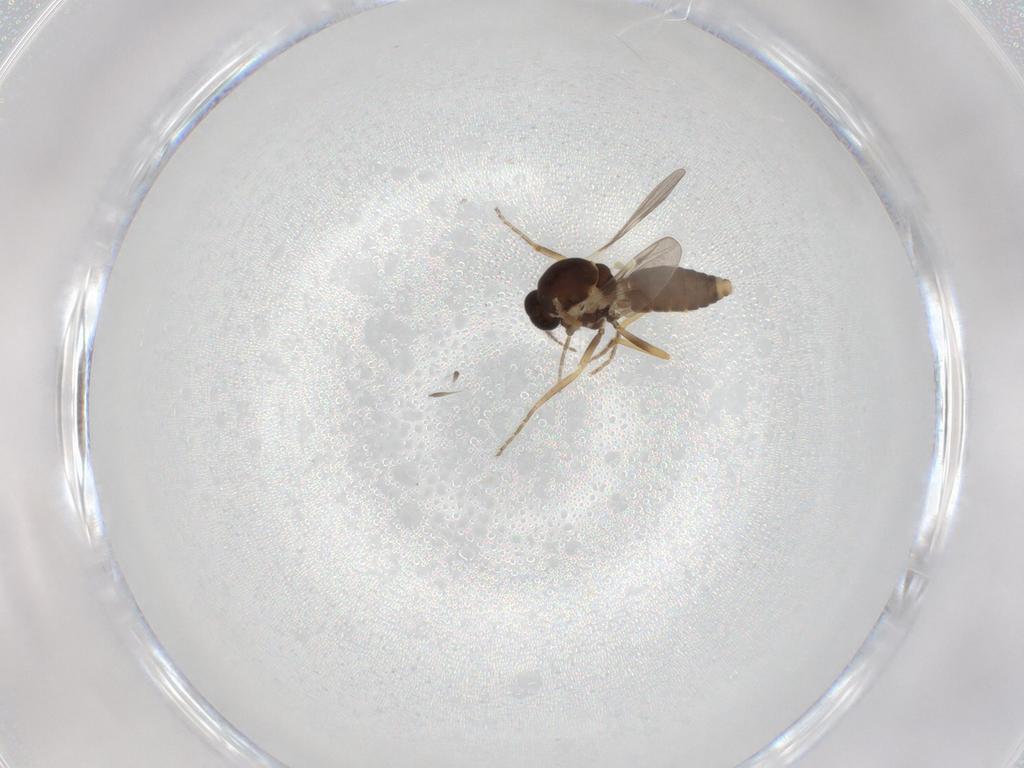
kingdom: Animalia
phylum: Arthropoda
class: Insecta
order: Diptera
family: Ceratopogonidae
